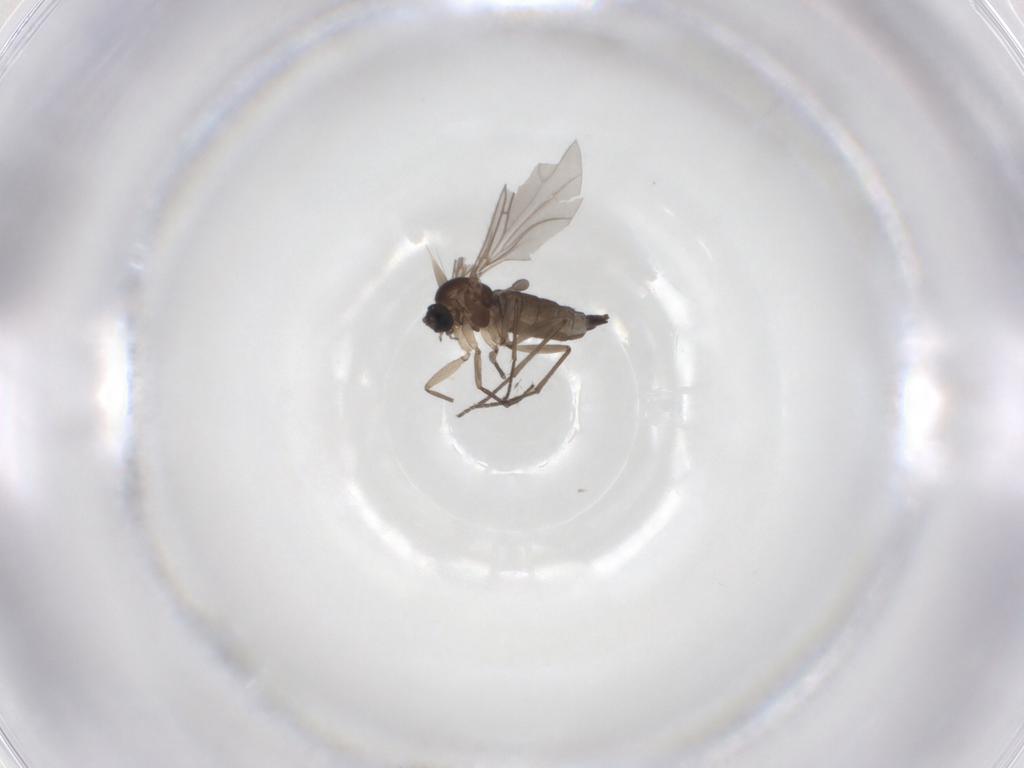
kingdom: Animalia
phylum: Arthropoda
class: Insecta
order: Diptera
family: Sciaridae
